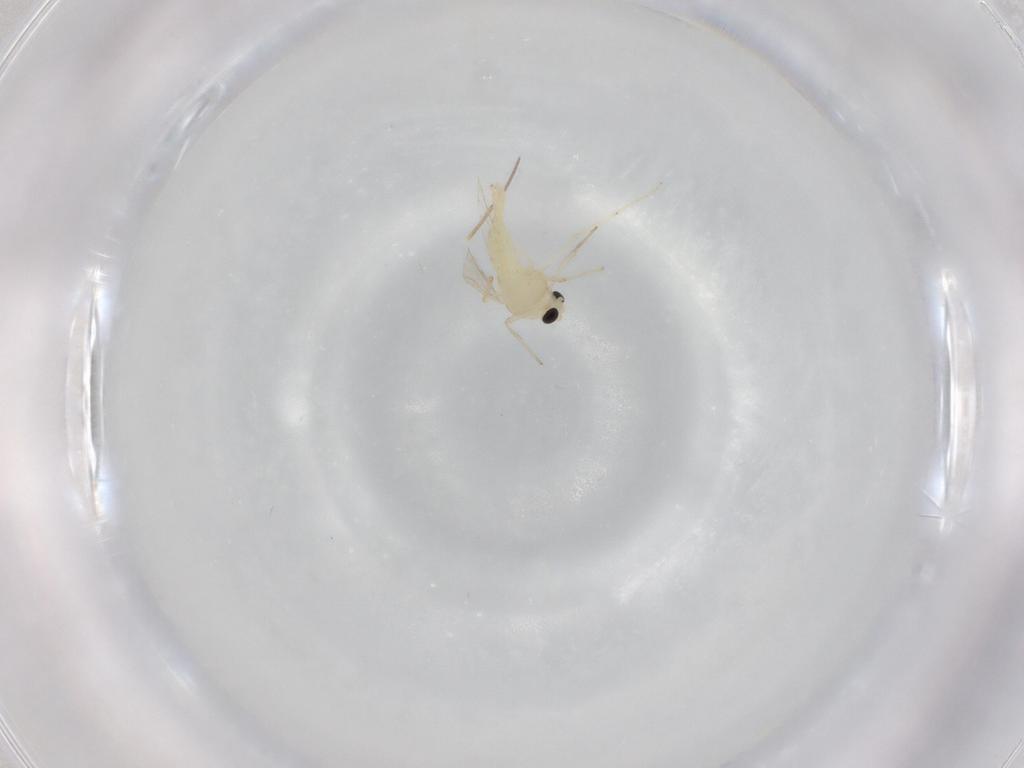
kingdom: Animalia
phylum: Arthropoda
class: Insecta
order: Diptera
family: Chironomidae
